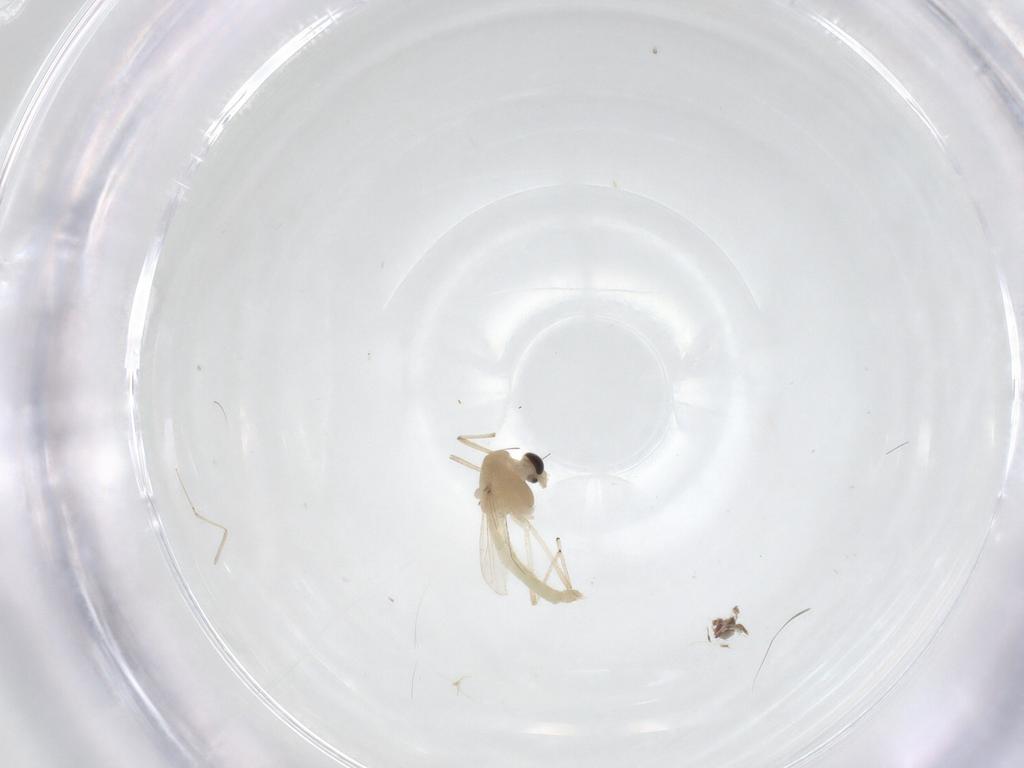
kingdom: Animalia
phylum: Arthropoda
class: Insecta
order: Diptera
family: Chironomidae
